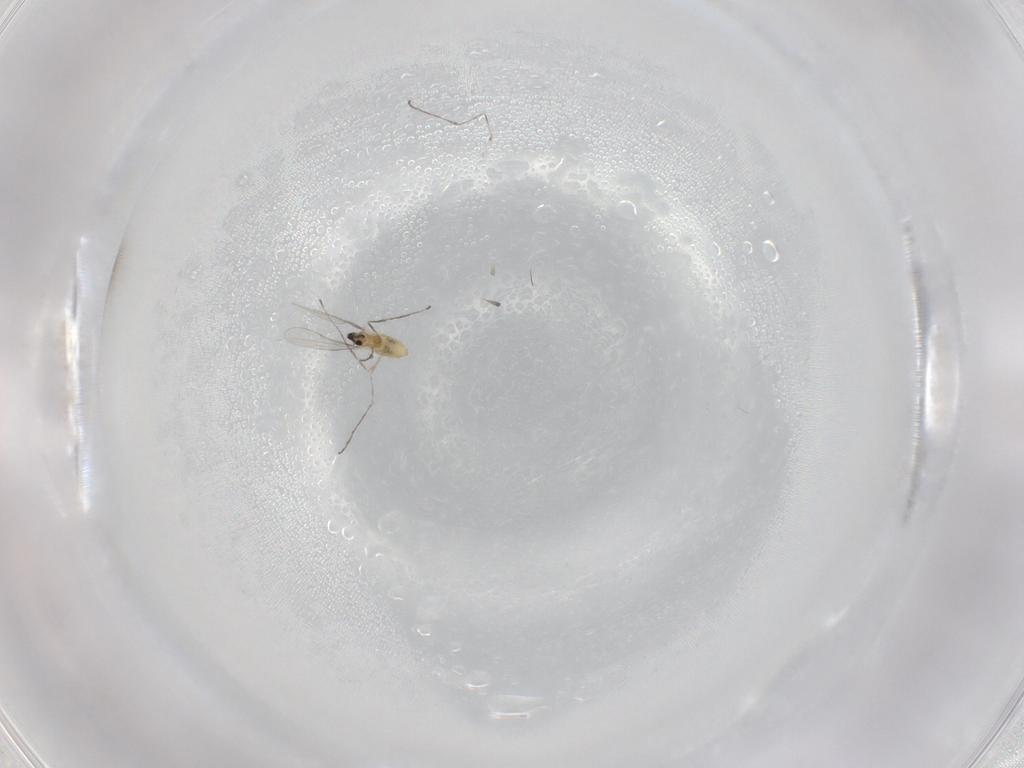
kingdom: Animalia
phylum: Arthropoda
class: Insecta
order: Diptera
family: Cecidomyiidae
